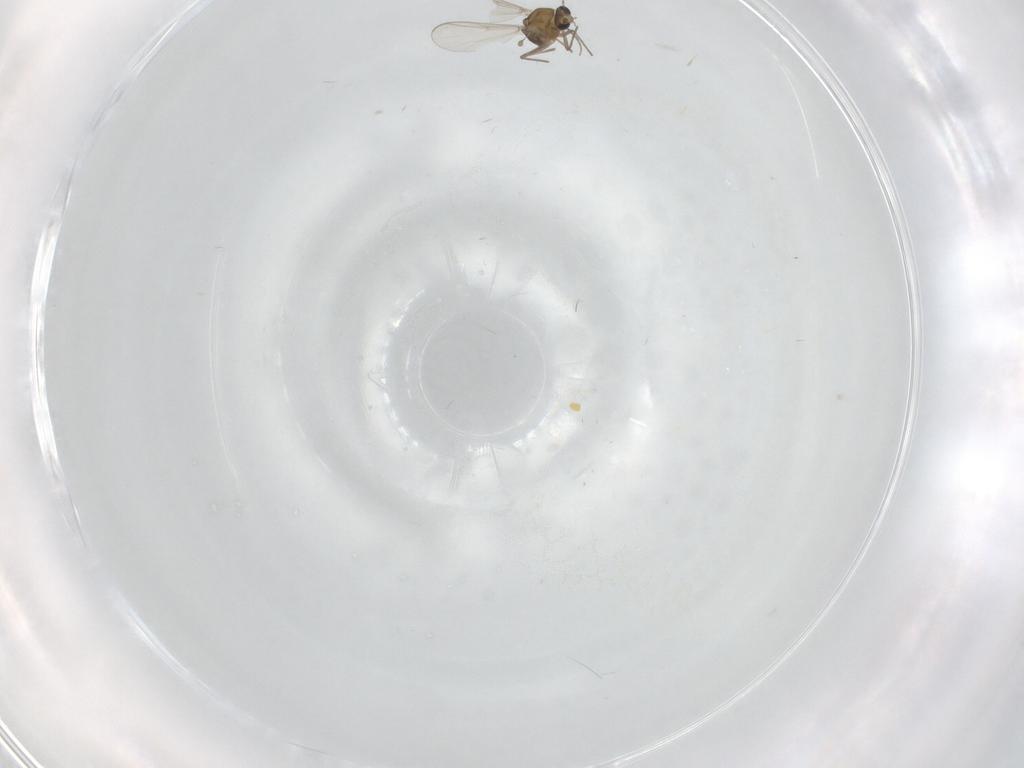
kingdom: Animalia
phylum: Arthropoda
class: Insecta
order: Diptera
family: Chironomidae
